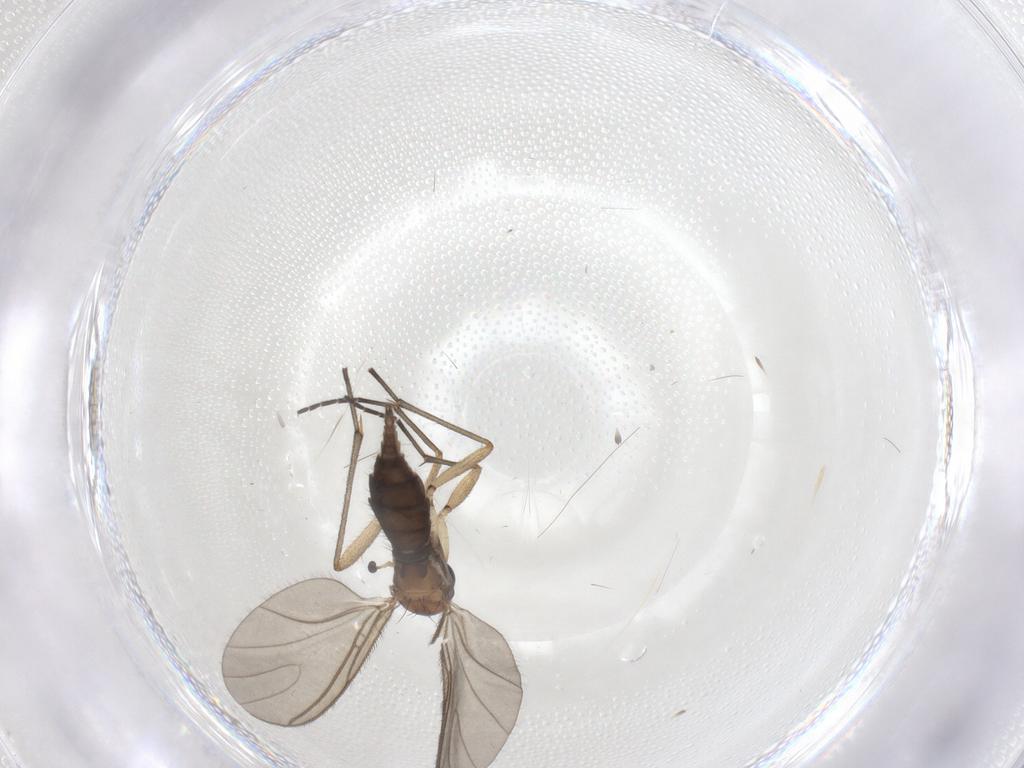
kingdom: Animalia
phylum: Arthropoda
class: Insecta
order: Diptera
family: Sciaridae
